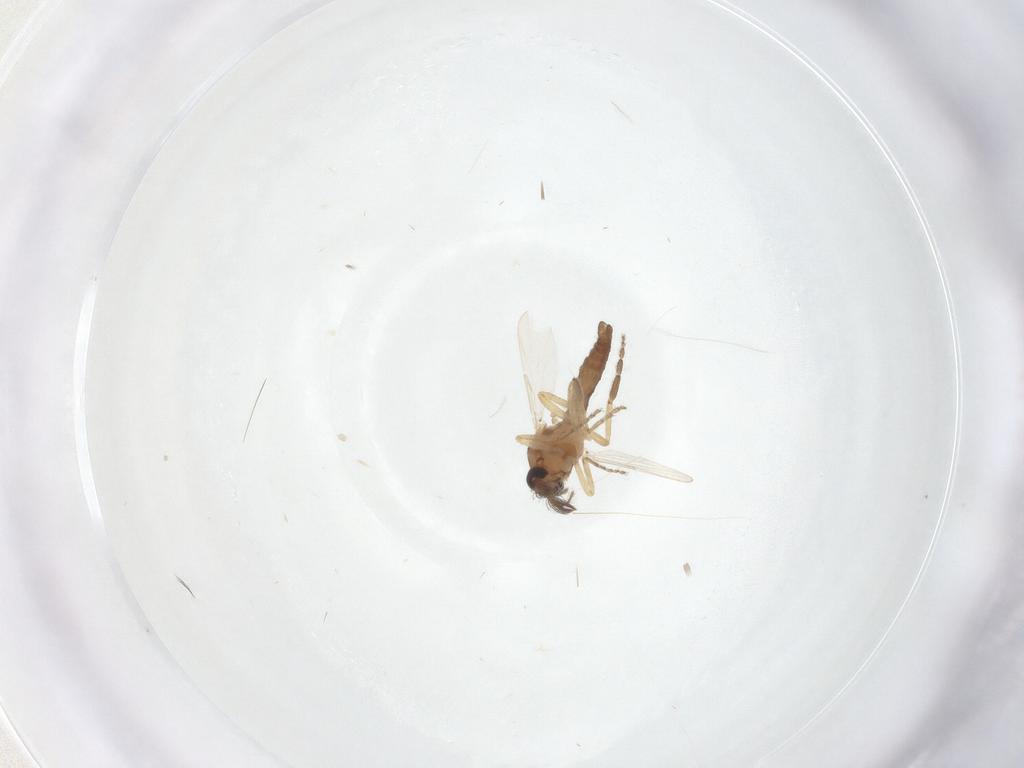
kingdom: Animalia
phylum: Arthropoda
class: Insecta
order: Diptera
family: Ceratopogonidae
